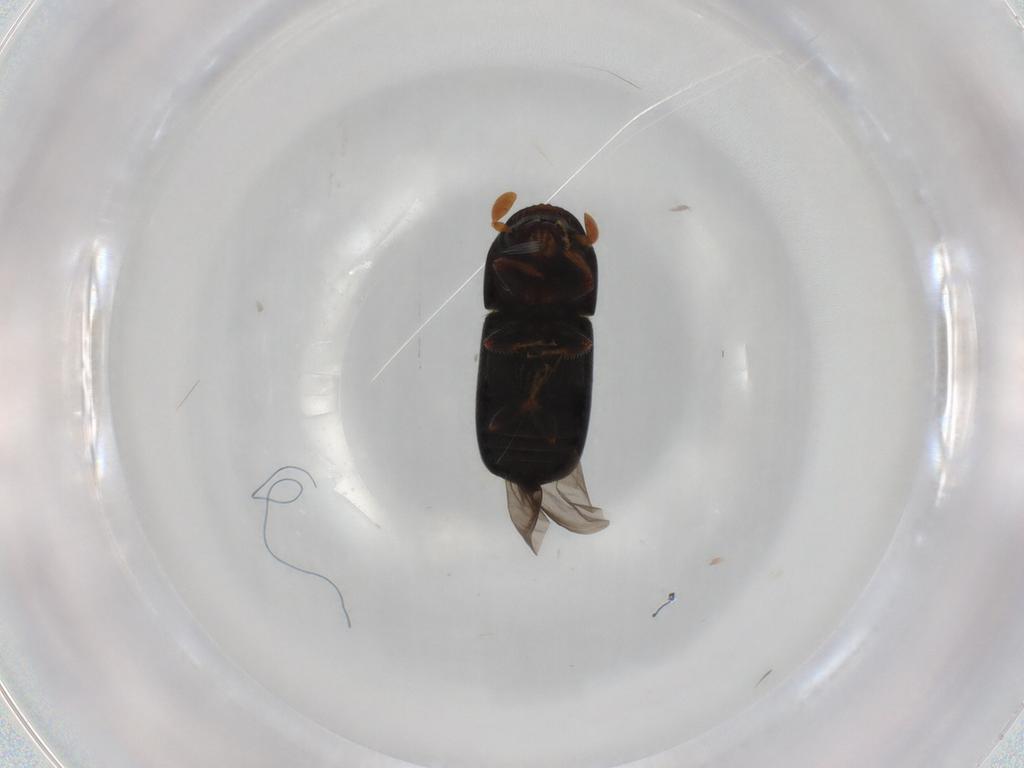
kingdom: Animalia
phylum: Arthropoda
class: Insecta
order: Coleoptera
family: Curculionidae
